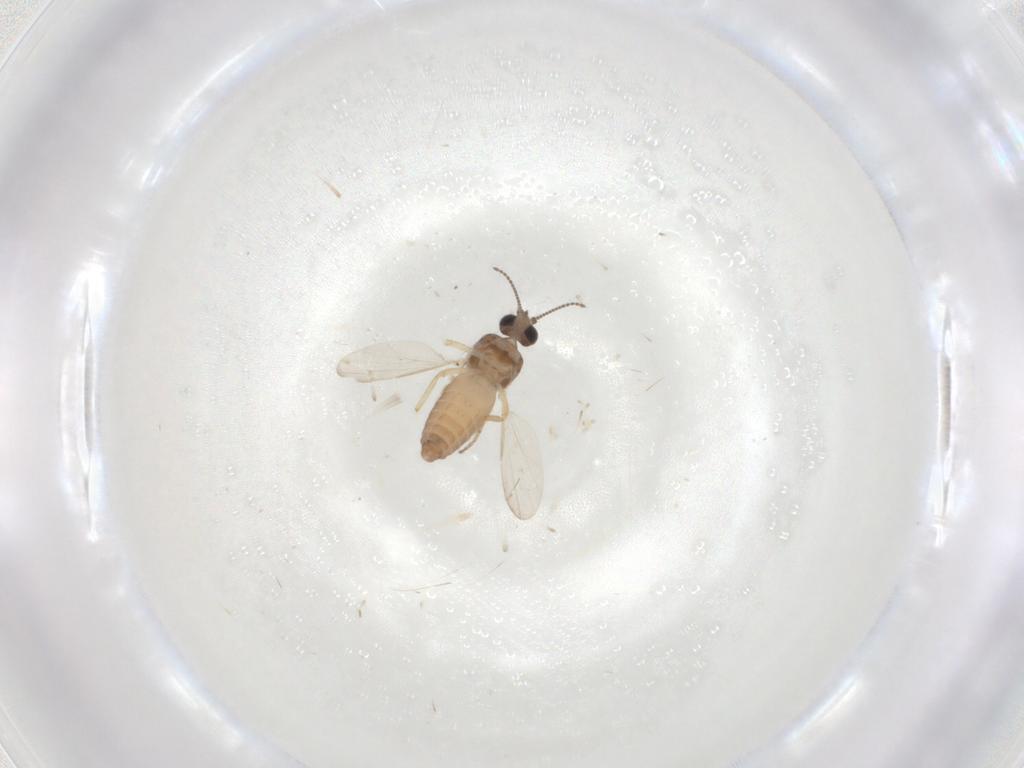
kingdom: Animalia
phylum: Arthropoda
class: Insecta
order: Diptera
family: Ceratopogonidae
